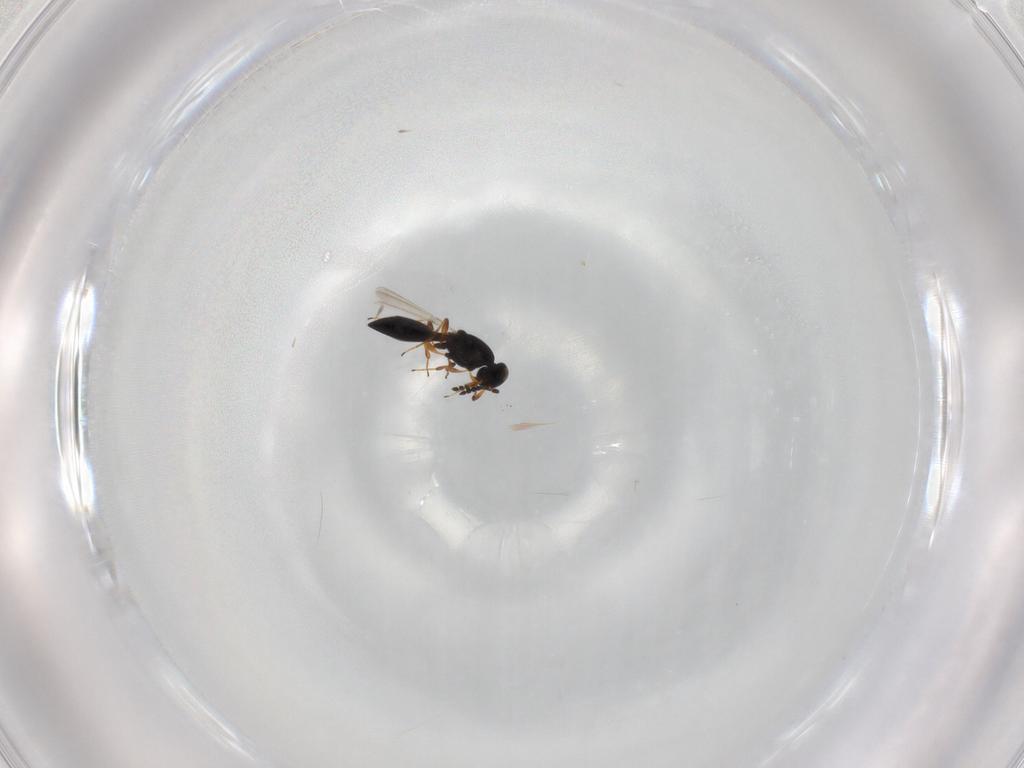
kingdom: Animalia
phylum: Arthropoda
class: Insecta
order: Hymenoptera
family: Platygastridae
